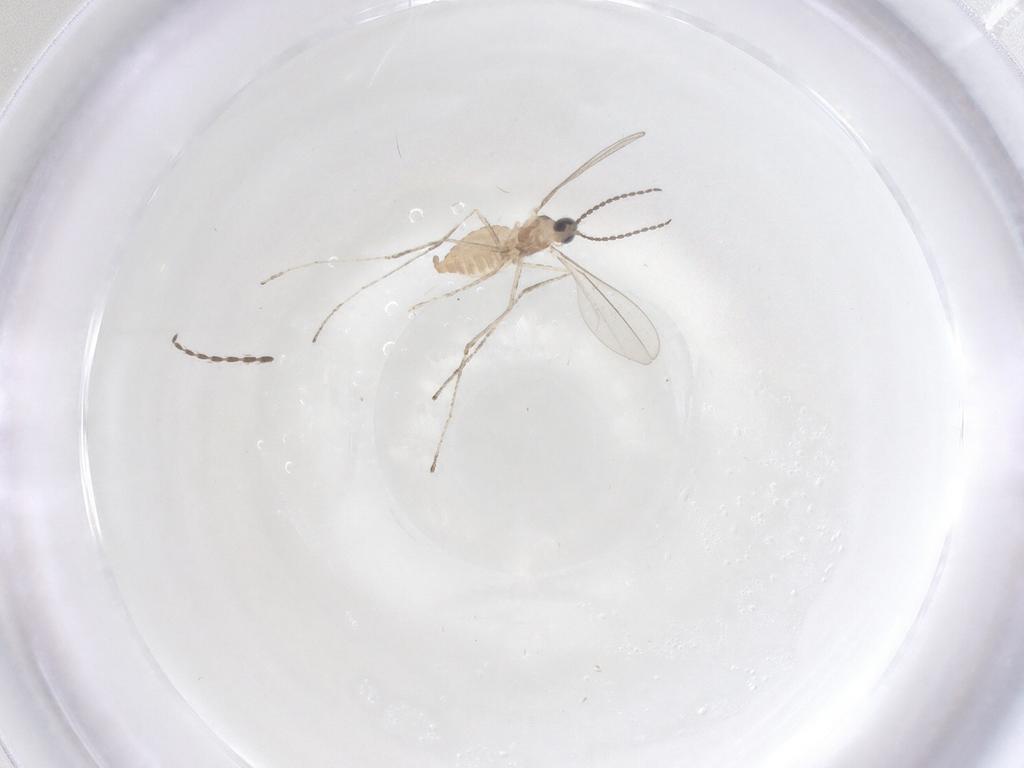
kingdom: Animalia
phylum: Arthropoda
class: Insecta
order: Diptera
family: Cecidomyiidae
